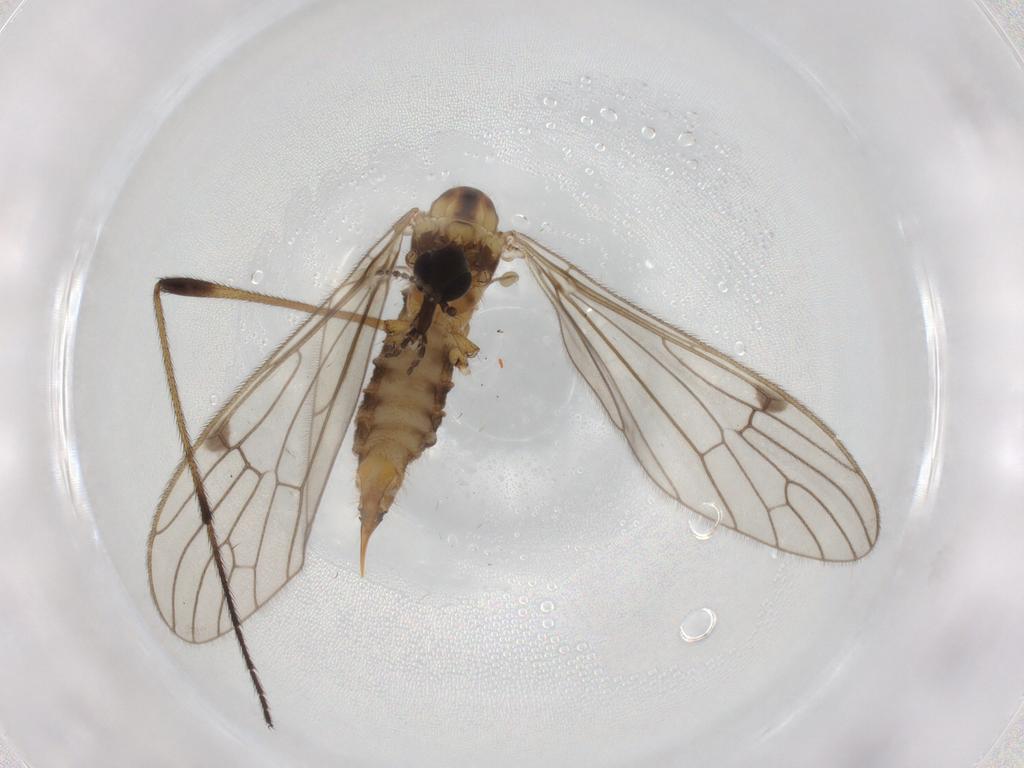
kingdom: Animalia
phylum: Arthropoda
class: Insecta
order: Diptera
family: Limoniidae
